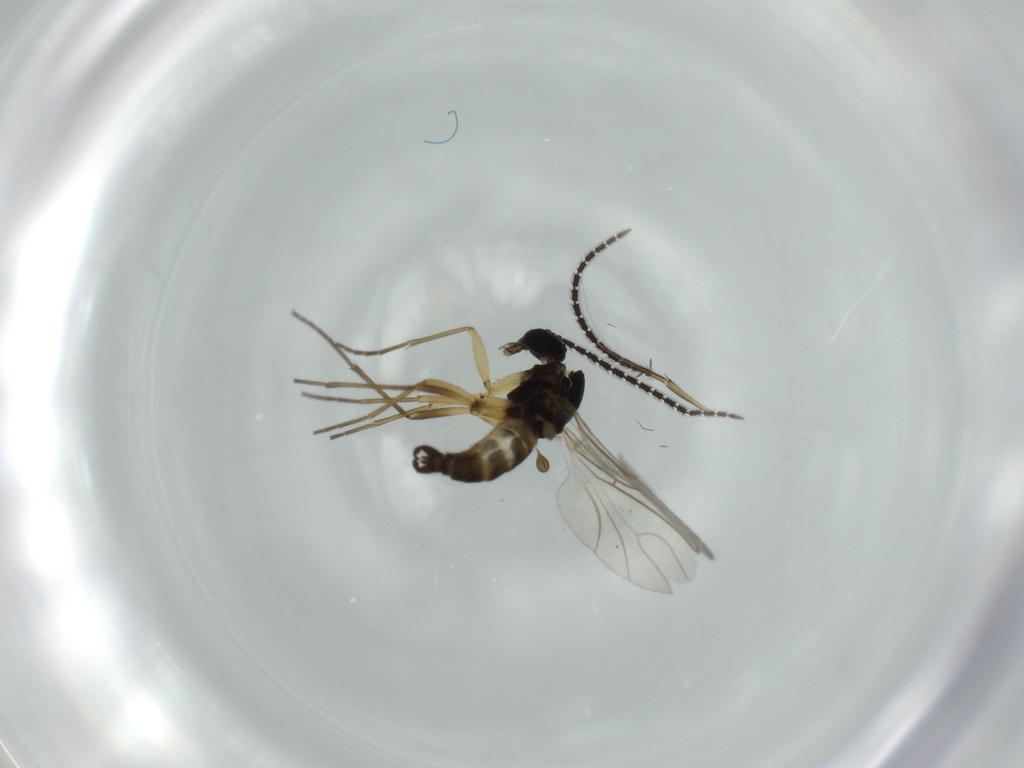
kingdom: Animalia
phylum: Arthropoda
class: Insecta
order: Diptera
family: Sciaridae
